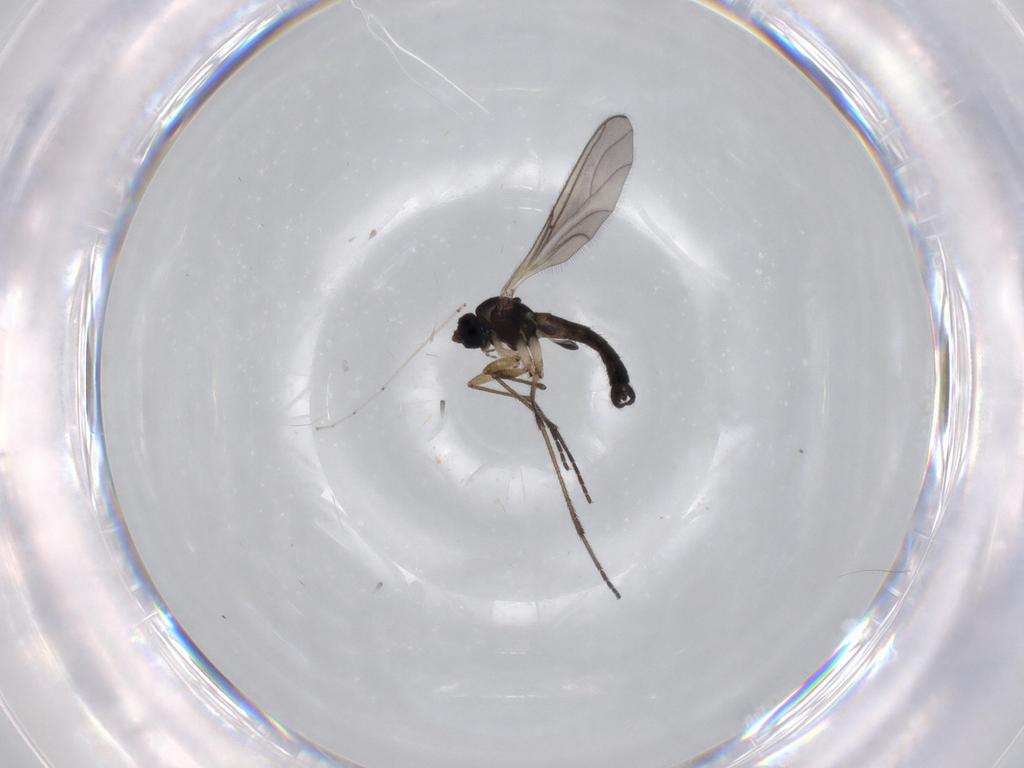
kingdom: Animalia
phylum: Arthropoda
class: Insecta
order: Diptera
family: Sciaridae
